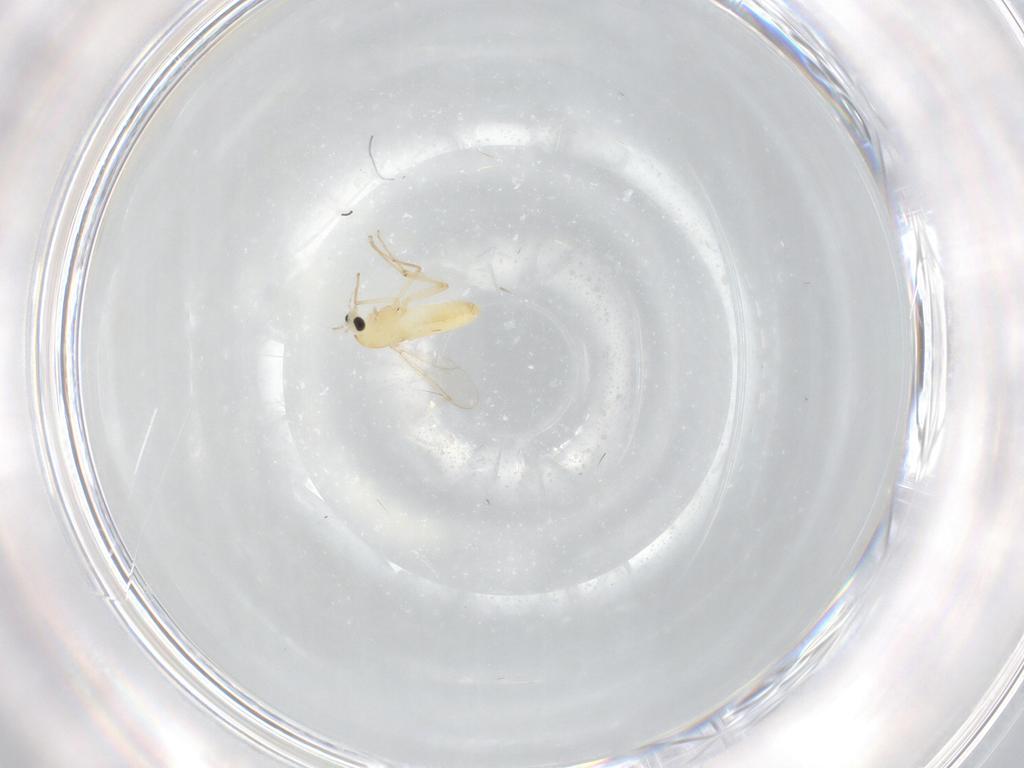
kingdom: Animalia
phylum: Arthropoda
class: Insecta
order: Diptera
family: Chironomidae
